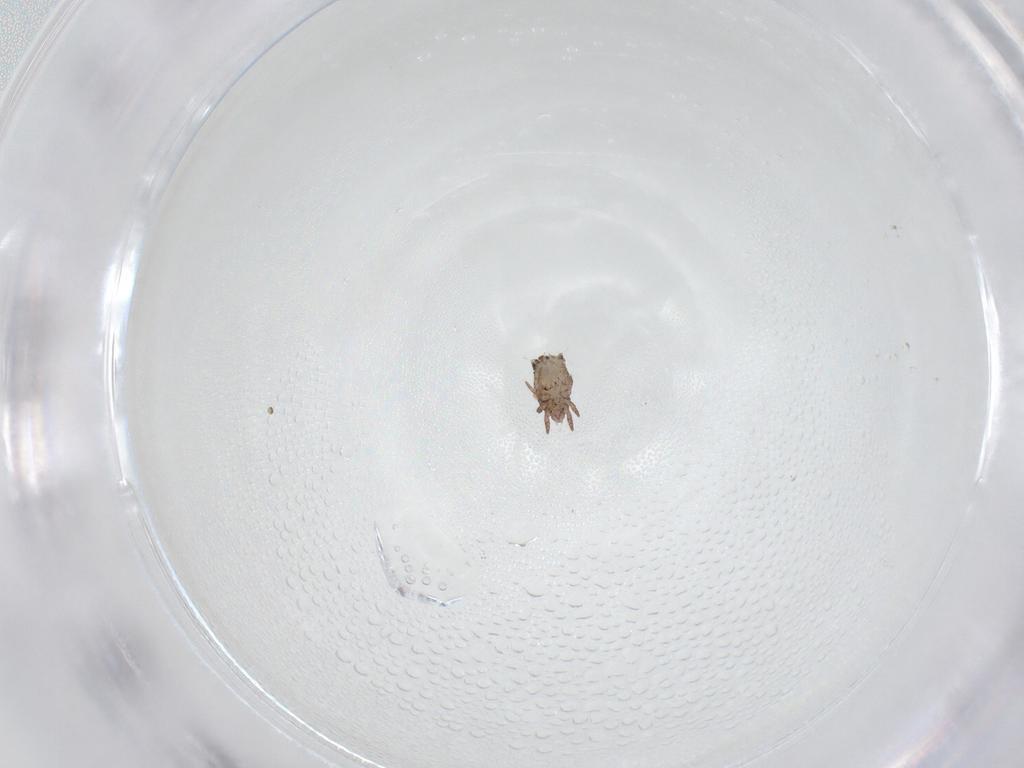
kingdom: Animalia
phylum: Arthropoda
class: Arachnida
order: Sarcoptiformes
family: Crotoniidae
